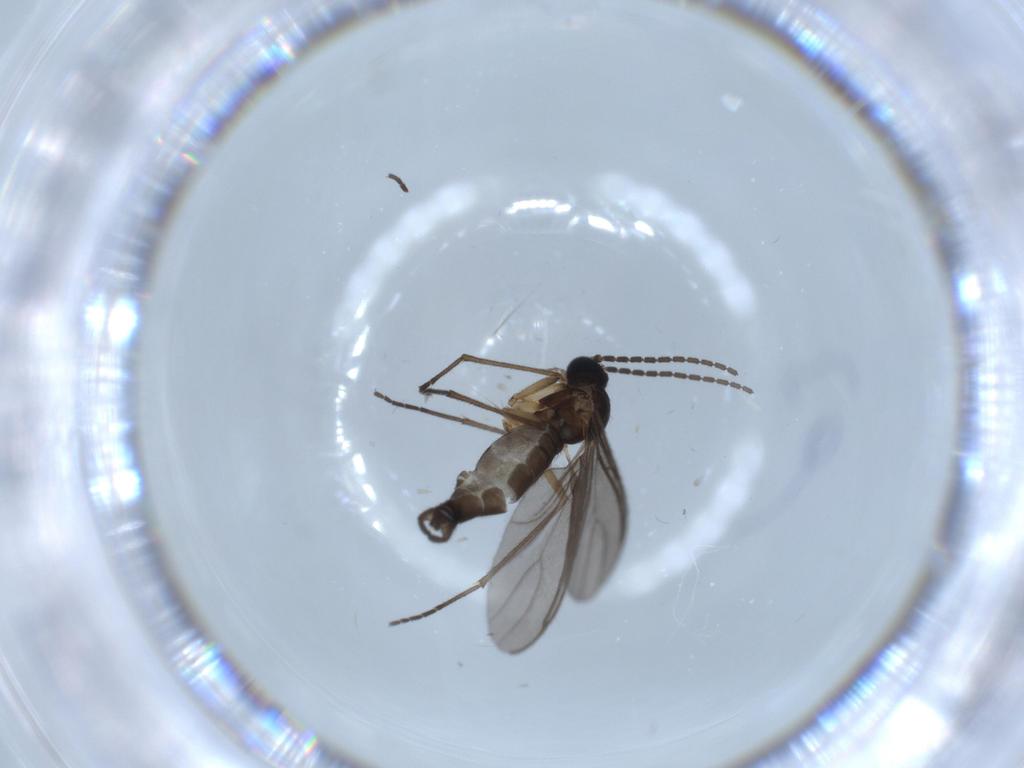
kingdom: Animalia
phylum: Arthropoda
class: Insecta
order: Diptera
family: Sciaridae
